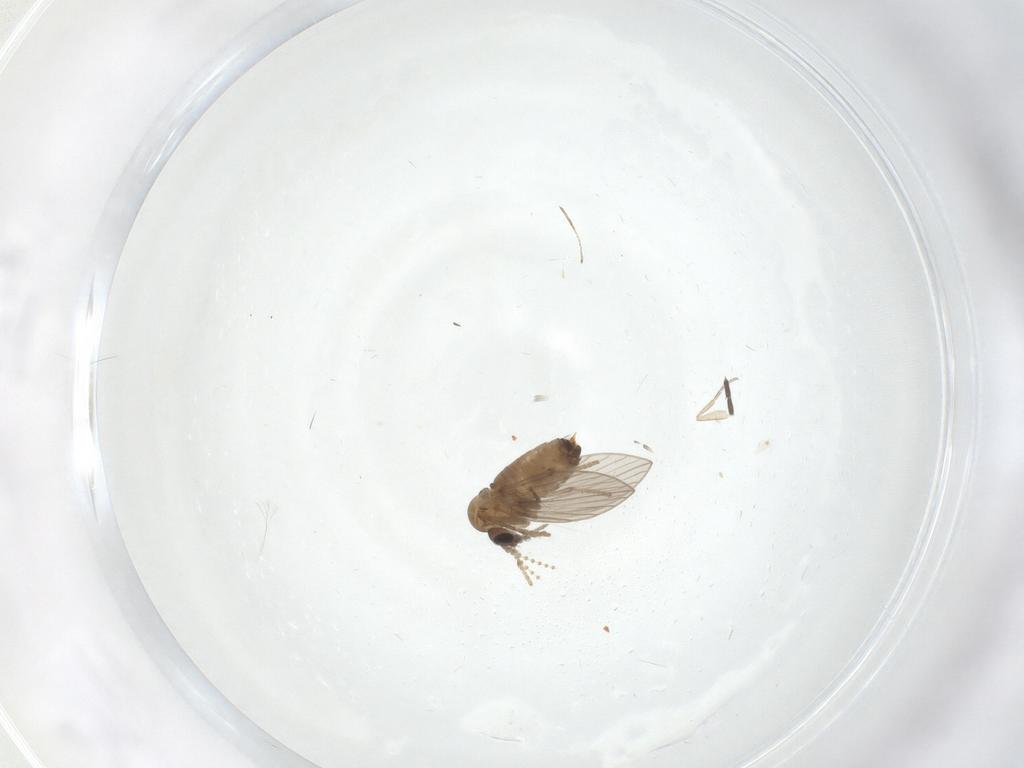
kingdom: Animalia
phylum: Arthropoda
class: Insecta
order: Diptera
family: Psychodidae
